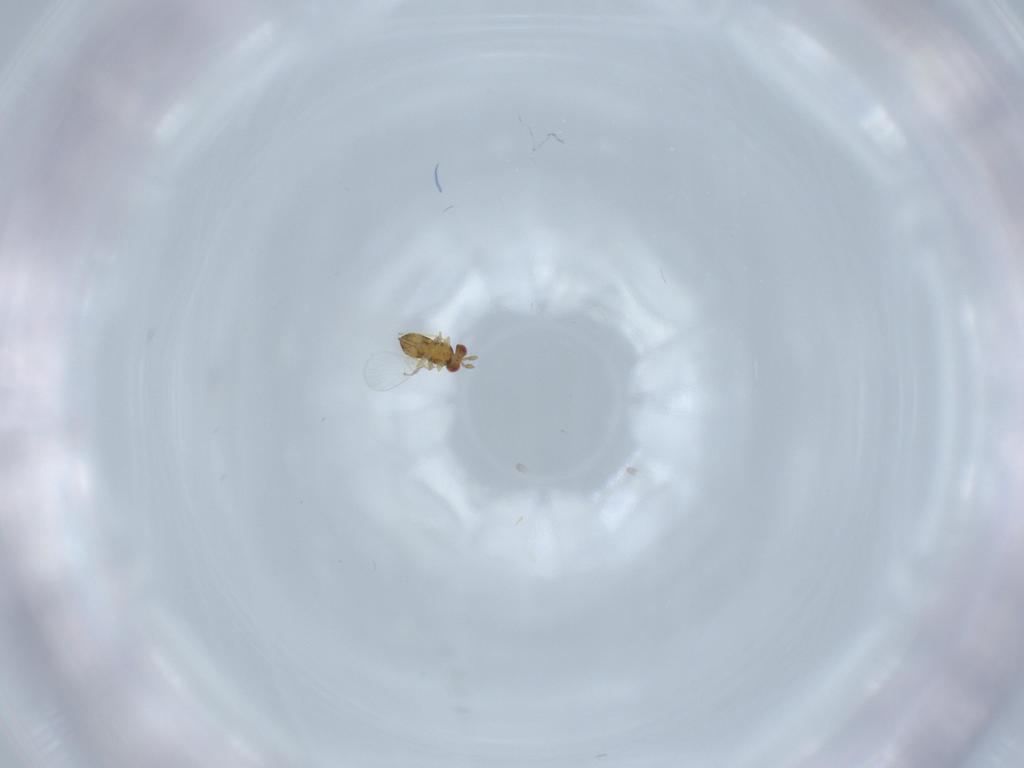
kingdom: Animalia
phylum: Arthropoda
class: Insecta
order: Hymenoptera
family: Trichogrammatidae
